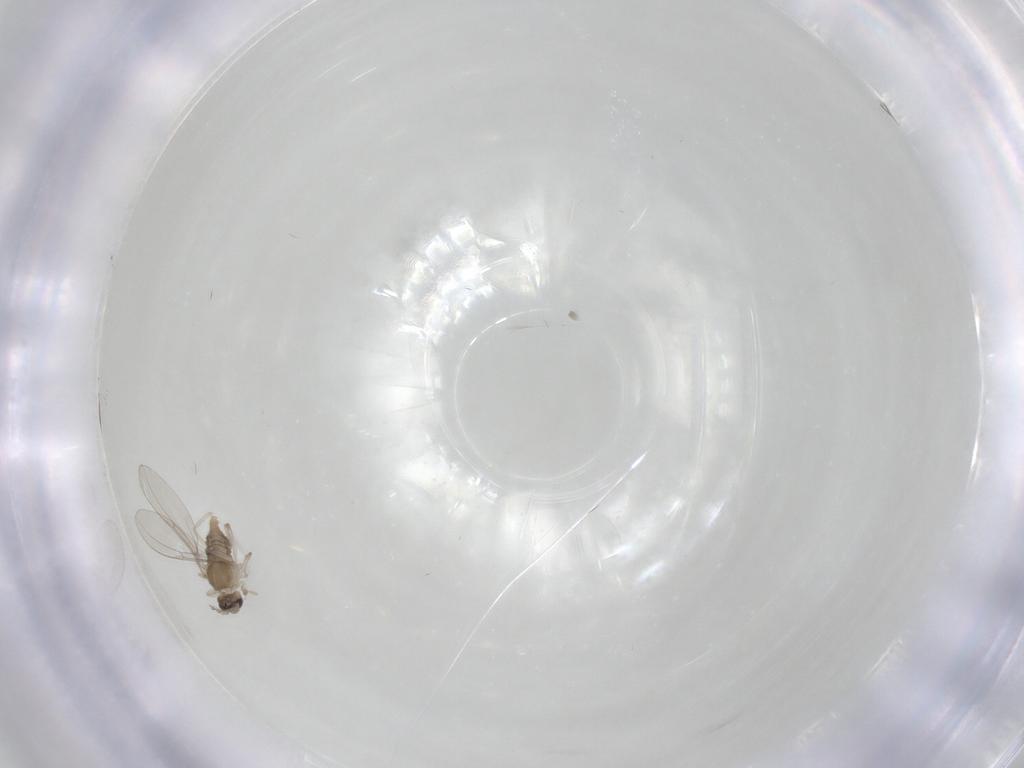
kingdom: Animalia
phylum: Arthropoda
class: Insecta
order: Diptera
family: Cecidomyiidae
